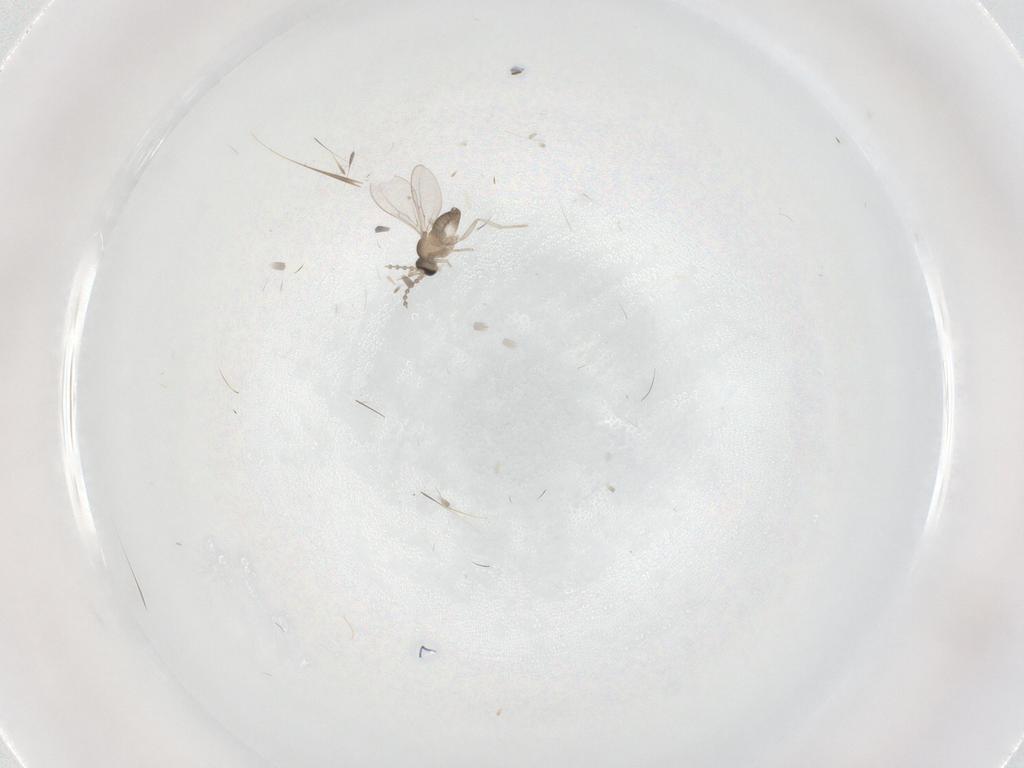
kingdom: Animalia
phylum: Arthropoda
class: Insecta
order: Diptera
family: Cecidomyiidae
